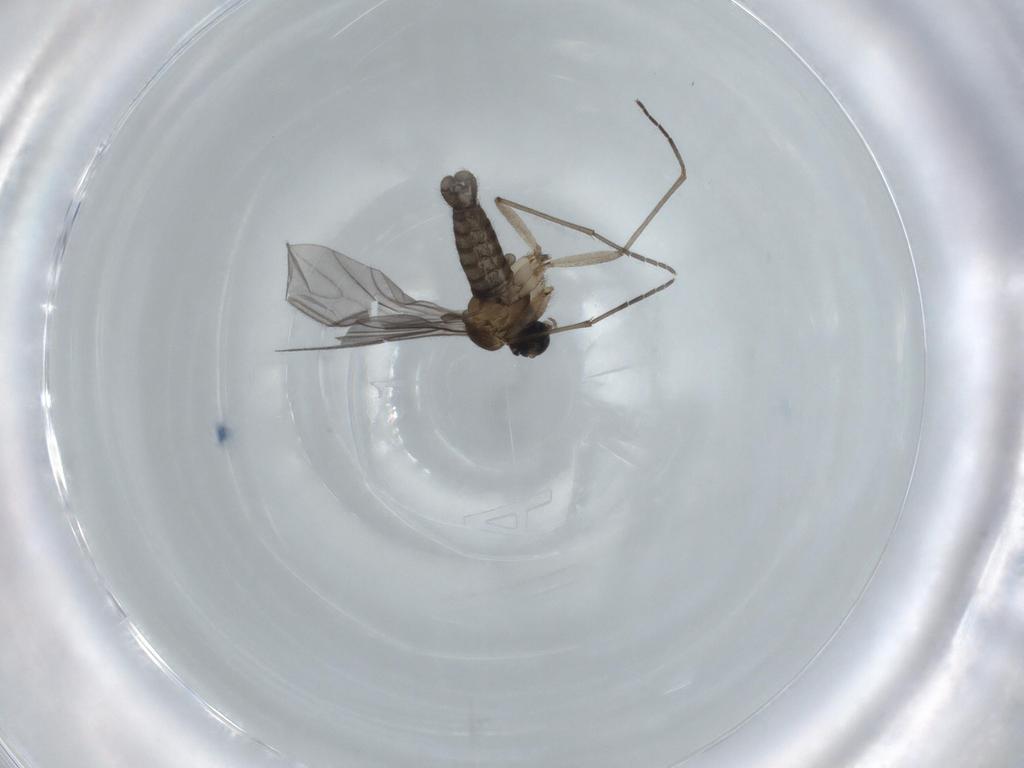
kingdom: Animalia
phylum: Arthropoda
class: Insecta
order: Diptera
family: Sciaridae
